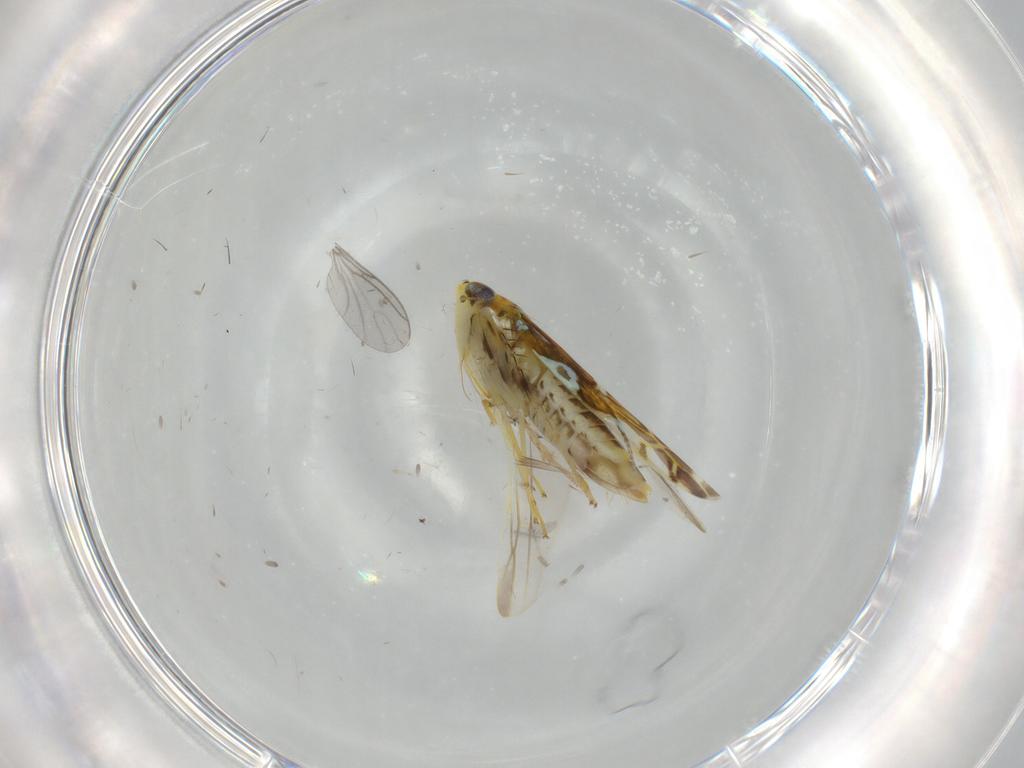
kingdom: Animalia
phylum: Arthropoda
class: Insecta
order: Hemiptera
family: Cicadellidae
